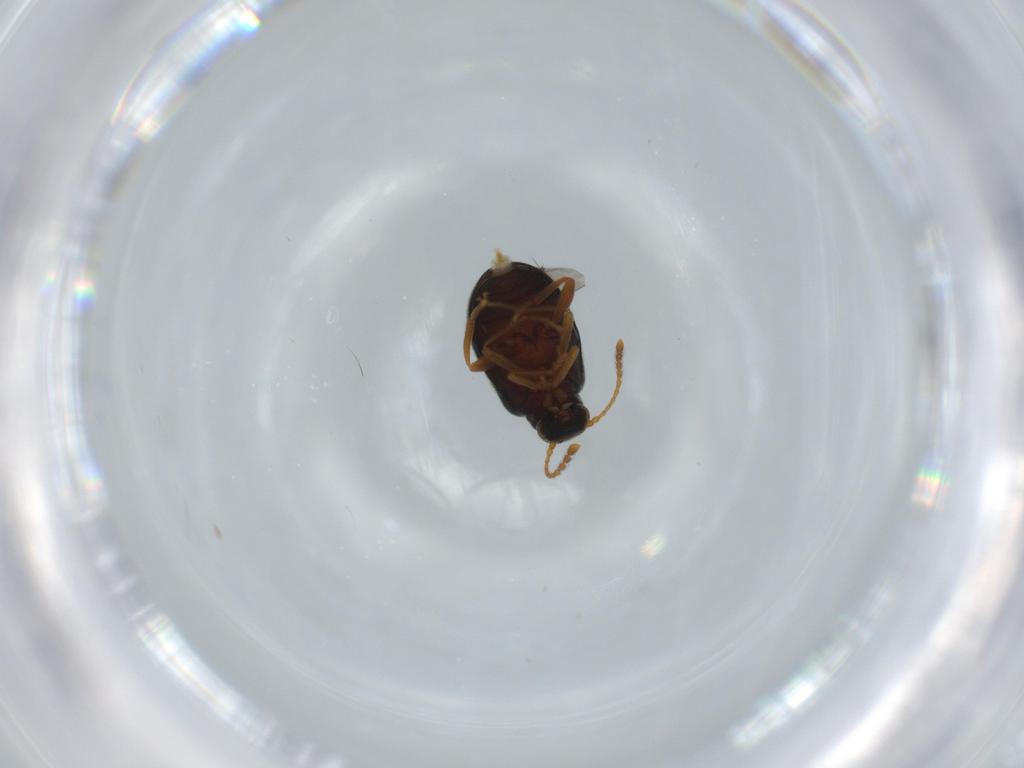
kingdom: Animalia
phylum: Arthropoda
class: Insecta
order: Coleoptera
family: Aderidae
